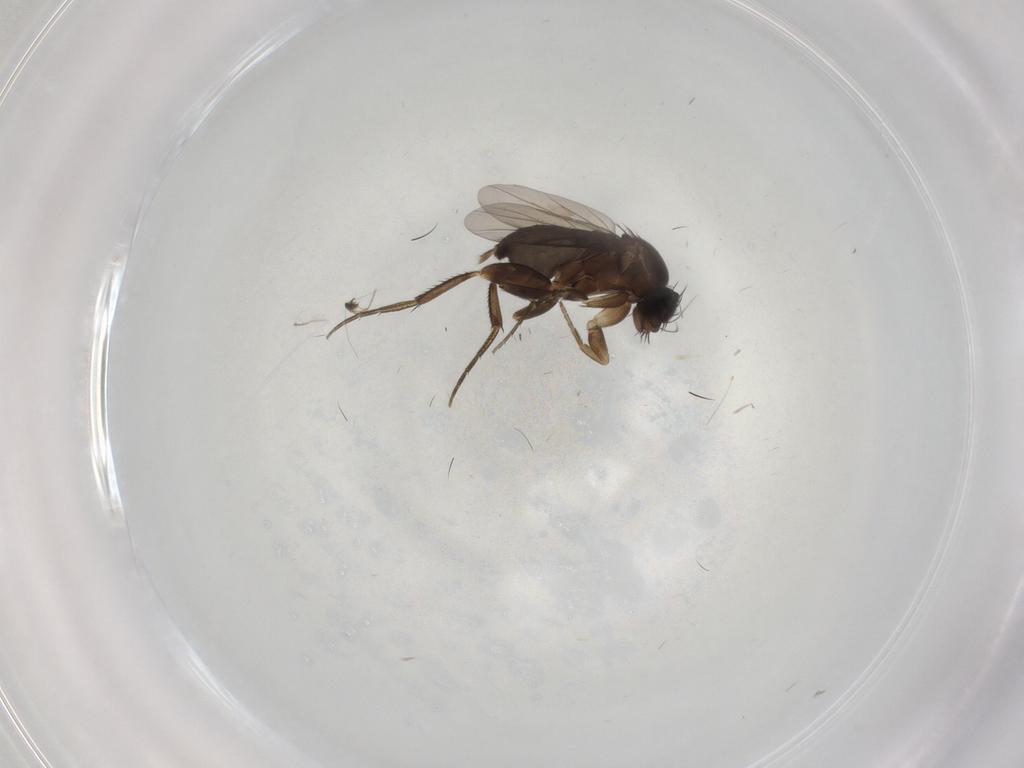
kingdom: Animalia
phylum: Arthropoda
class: Insecta
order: Diptera
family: Phoridae
